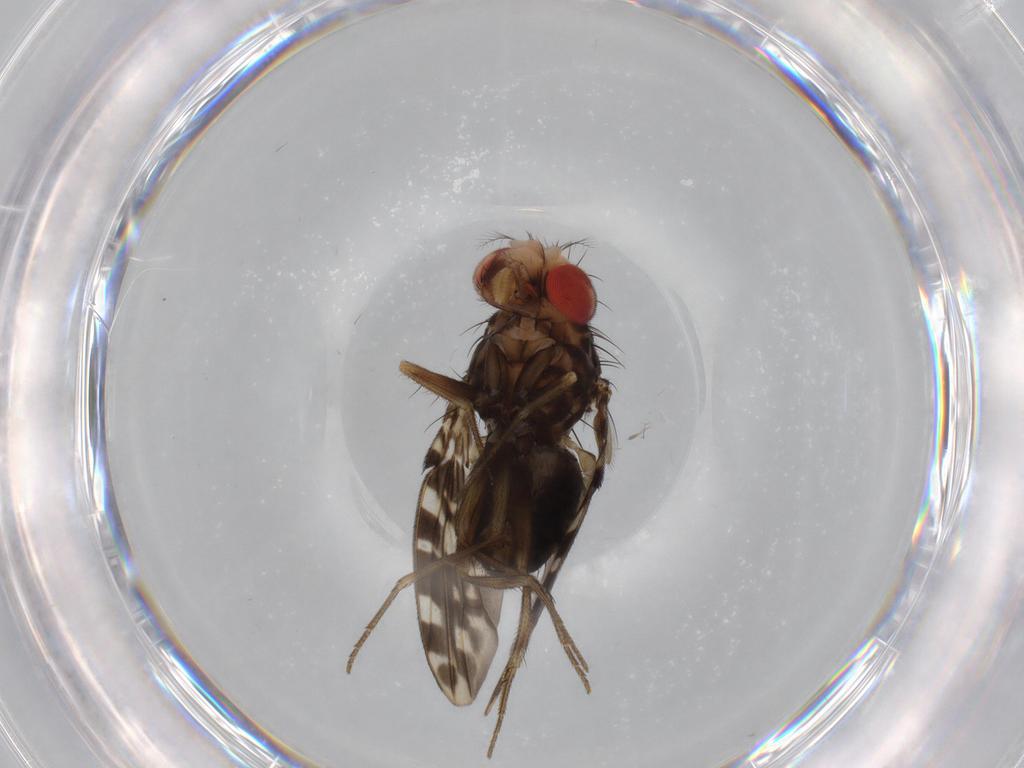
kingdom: Animalia
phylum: Arthropoda
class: Insecta
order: Diptera
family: Drosophilidae
